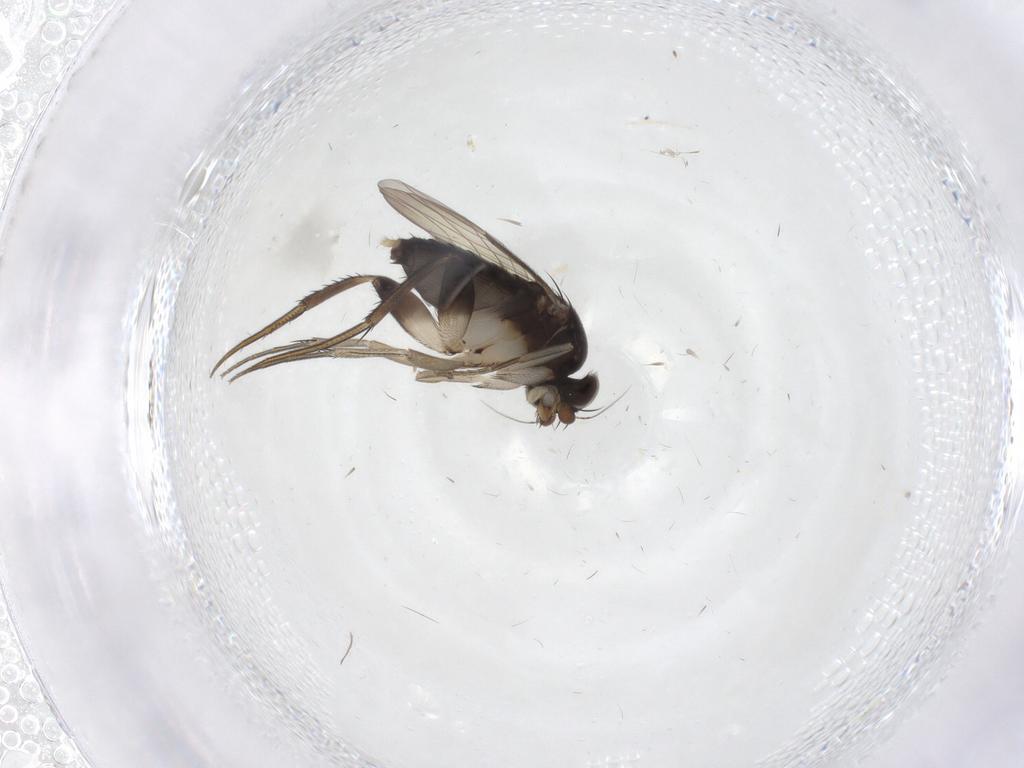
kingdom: Animalia
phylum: Arthropoda
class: Insecta
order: Diptera
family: Phoridae
